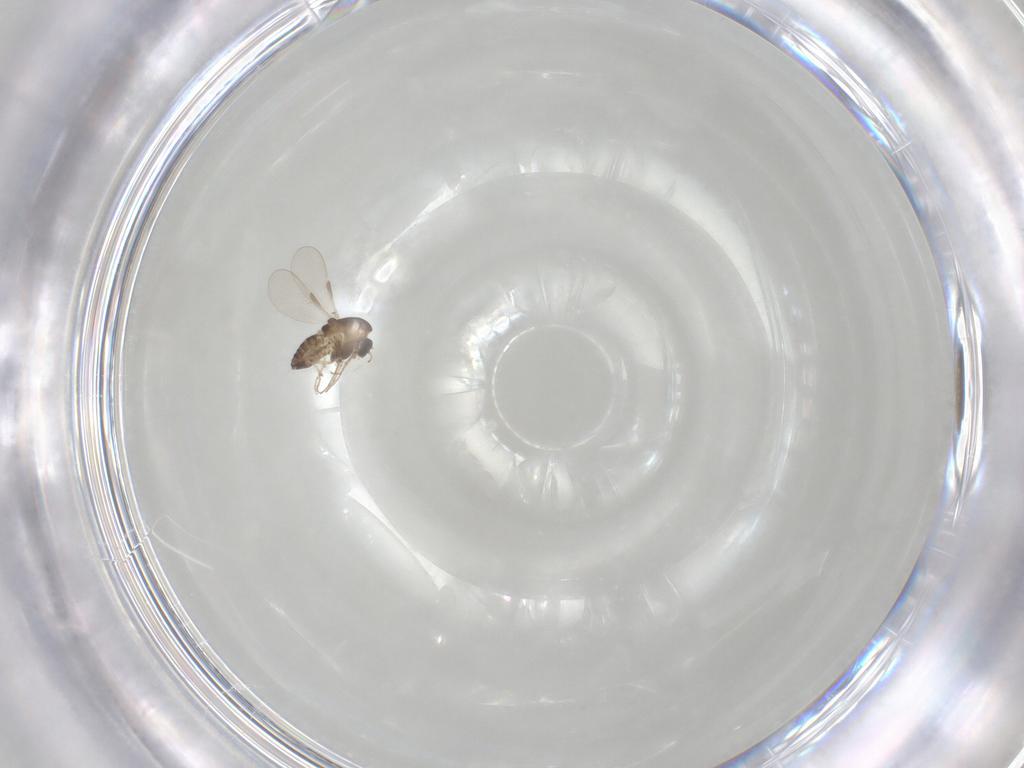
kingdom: Animalia
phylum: Arthropoda
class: Insecta
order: Diptera
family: Chironomidae
